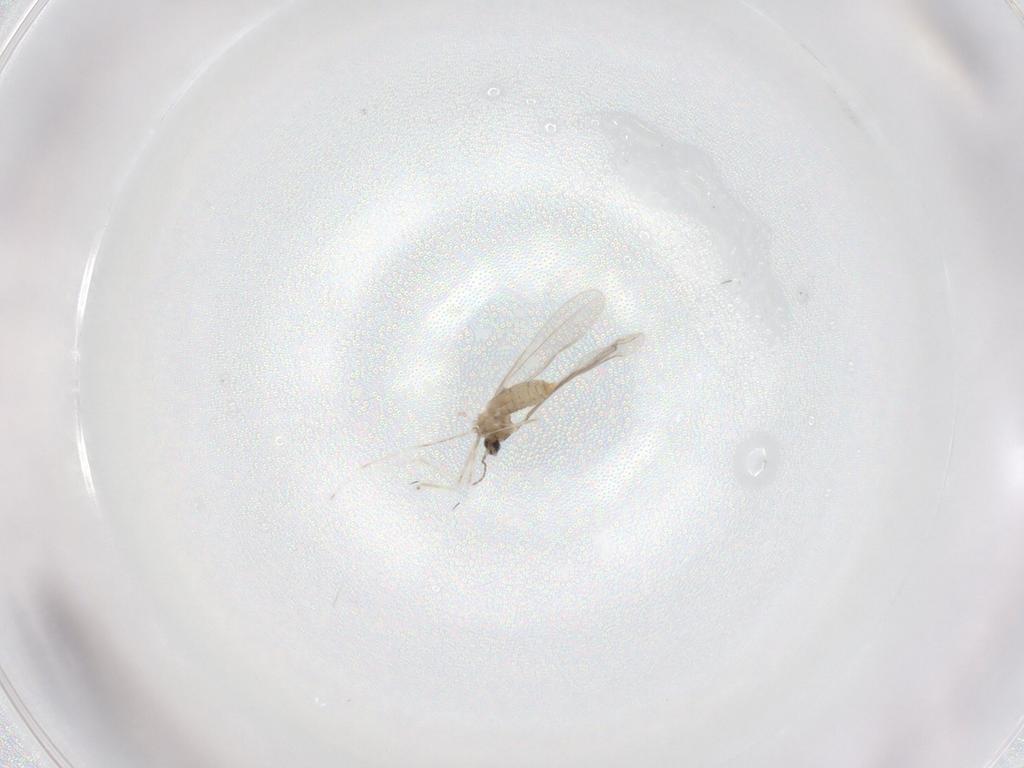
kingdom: Animalia
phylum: Arthropoda
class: Insecta
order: Diptera
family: Cecidomyiidae
